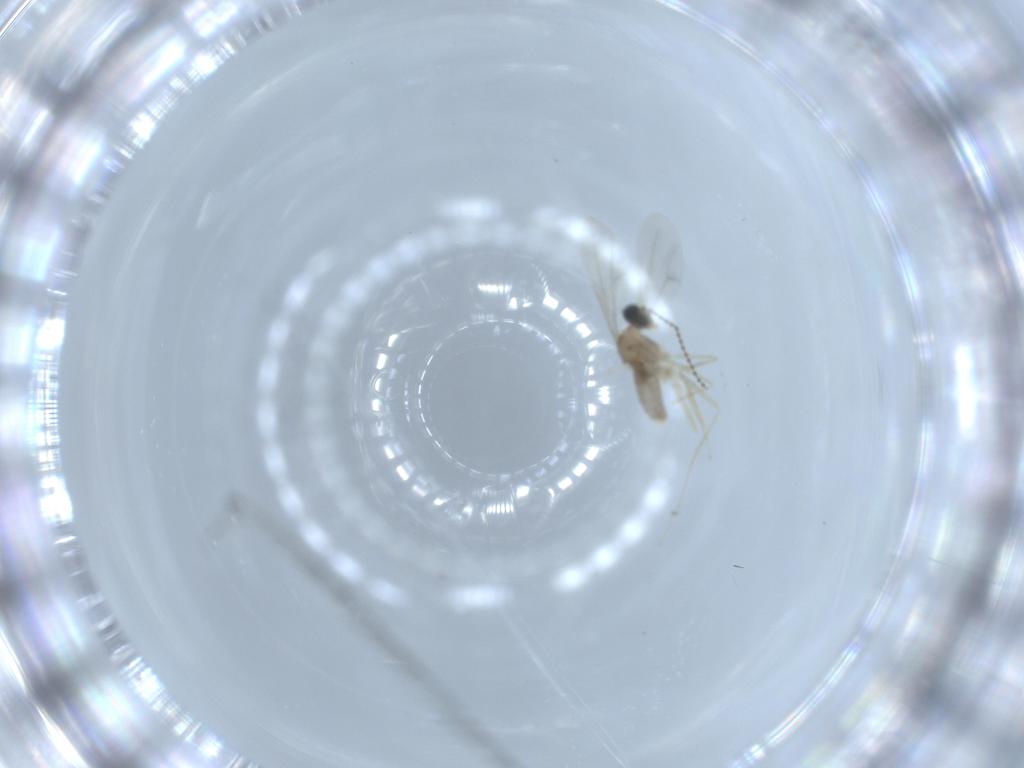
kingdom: Animalia
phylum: Arthropoda
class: Insecta
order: Diptera
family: Ceratopogonidae
